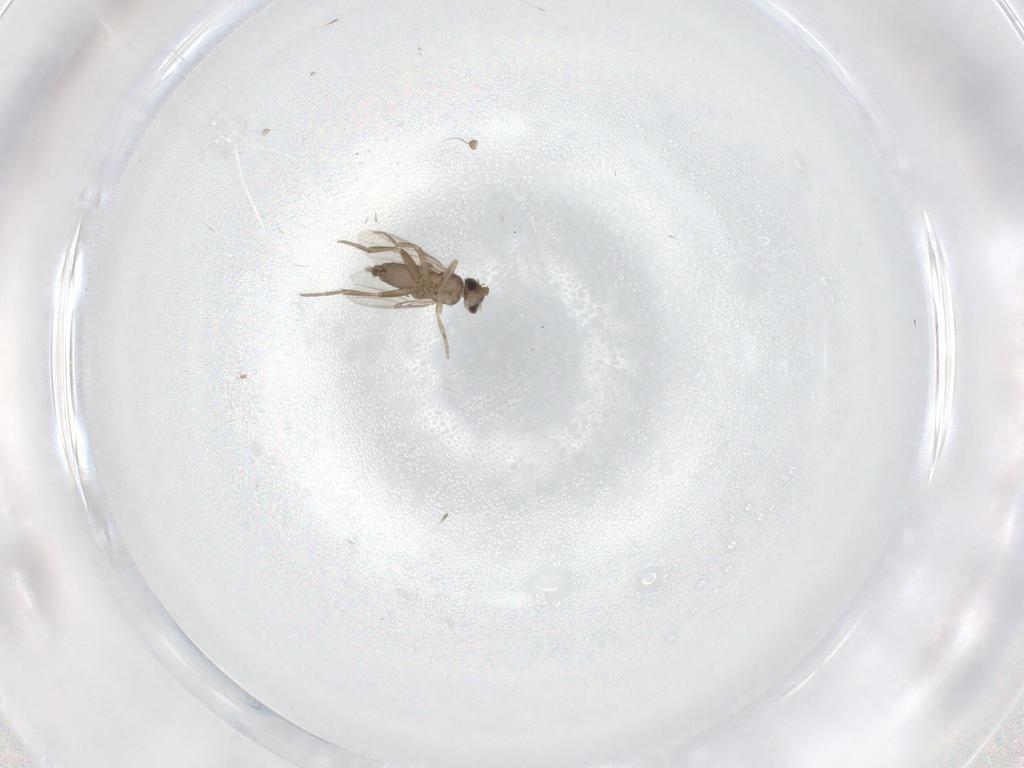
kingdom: Animalia
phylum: Arthropoda
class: Insecta
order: Diptera
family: Phoridae
